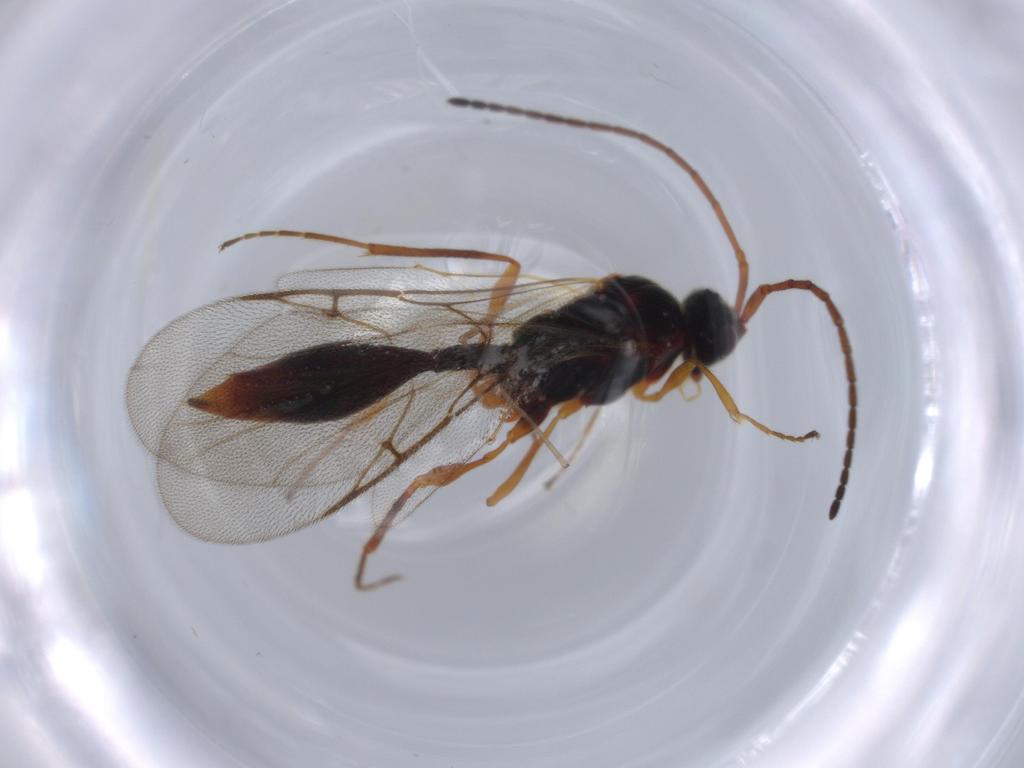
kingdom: Animalia
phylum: Arthropoda
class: Insecta
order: Hymenoptera
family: Diapriidae
